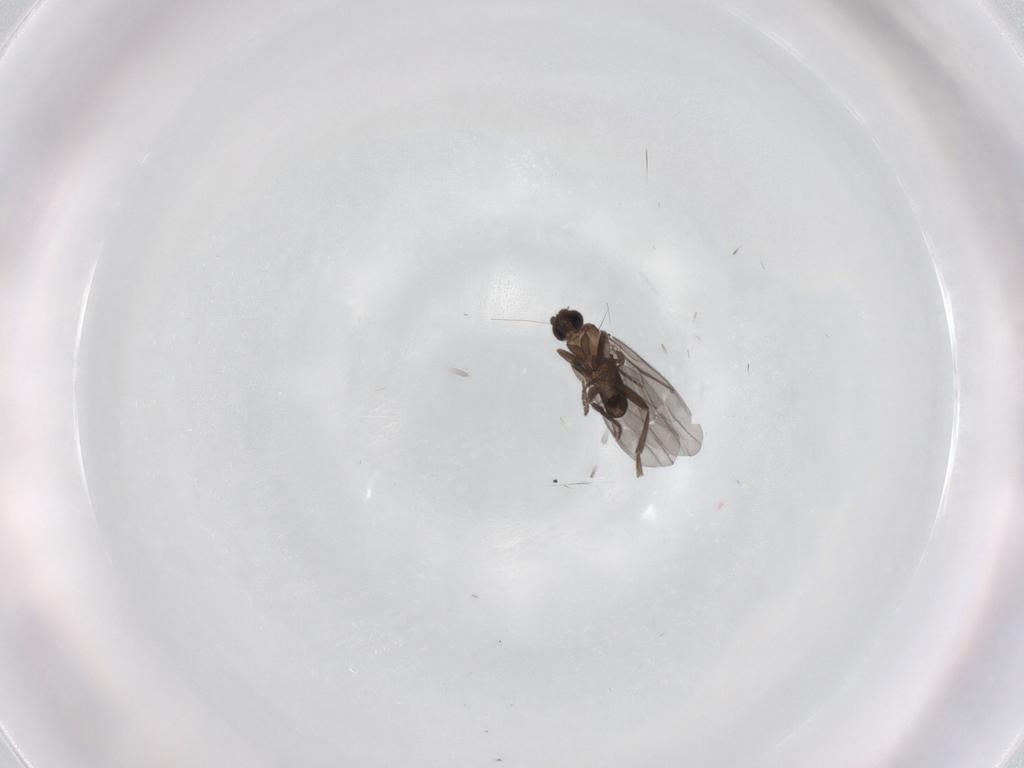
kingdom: Animalia
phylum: Arthropoda
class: Insecta
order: Diptera
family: Phoridae
